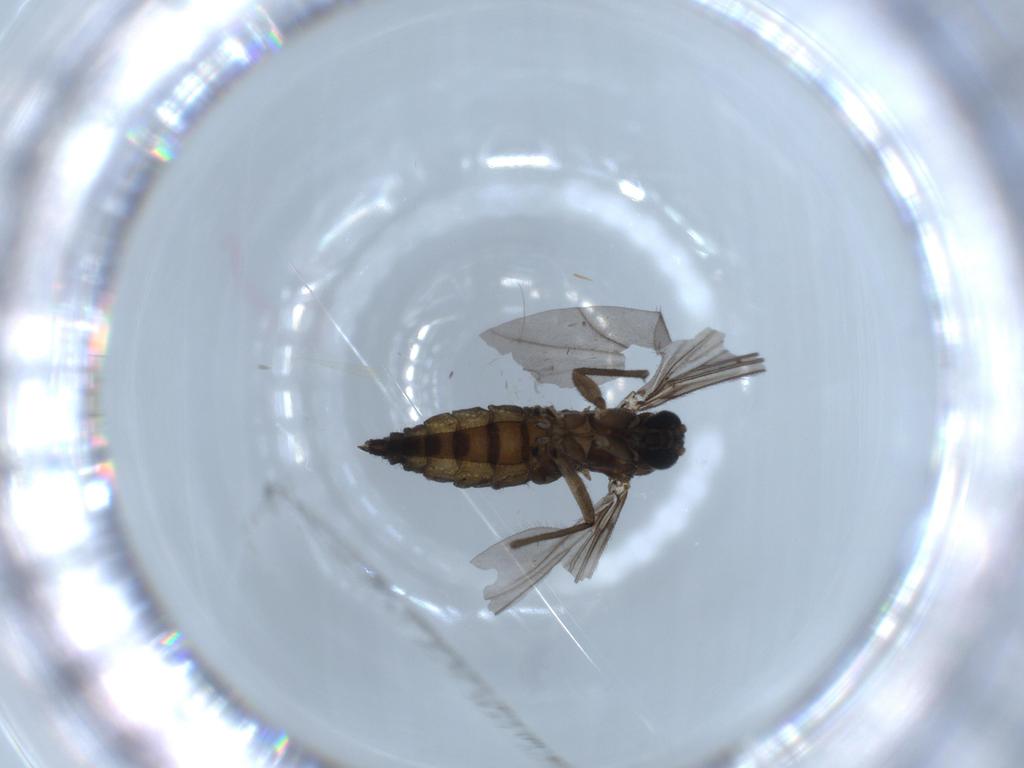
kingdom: Animalia
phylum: Arthropoda
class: Insecta
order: Diptera
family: Sciaridae
